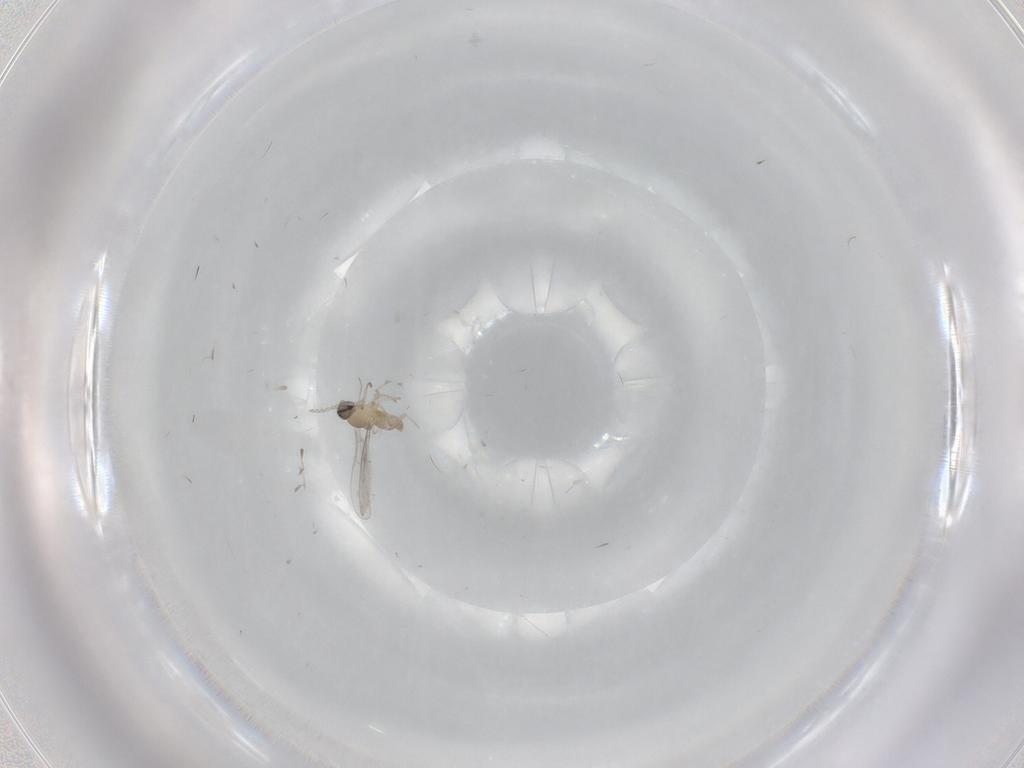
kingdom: Animalia
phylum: Arthropoda
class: Insecta
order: Diptera
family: Cecidomyiidae
